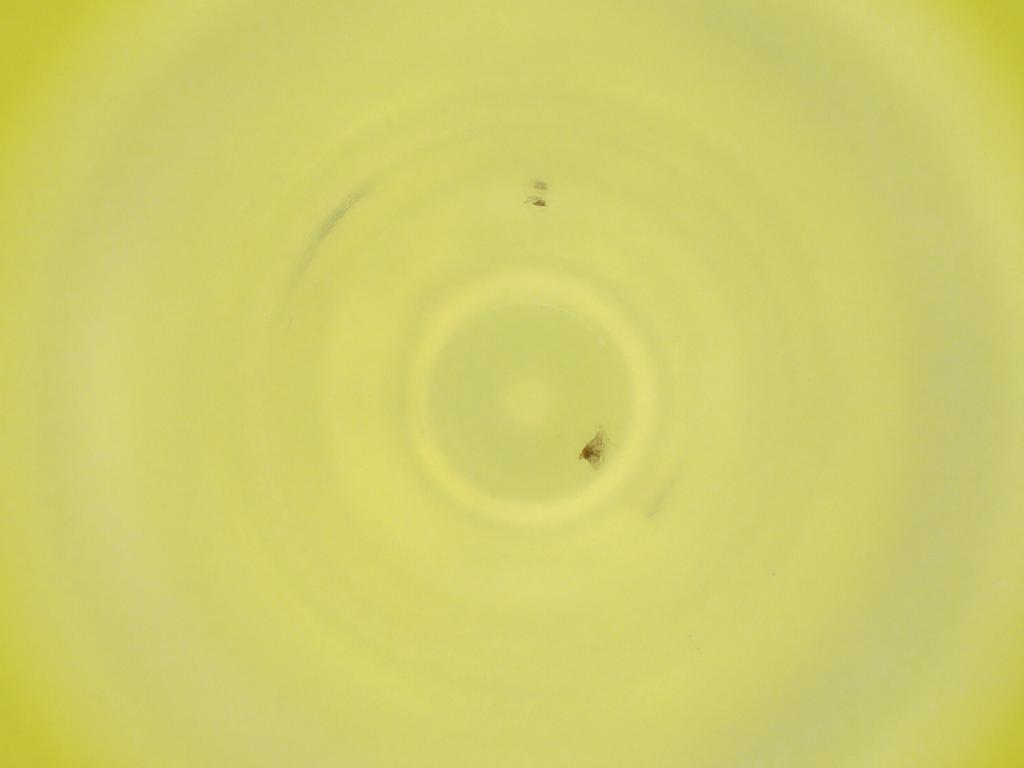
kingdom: Animalia
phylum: Arthropoda
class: Insecta
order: Diptera
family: Cecidomyiidae
